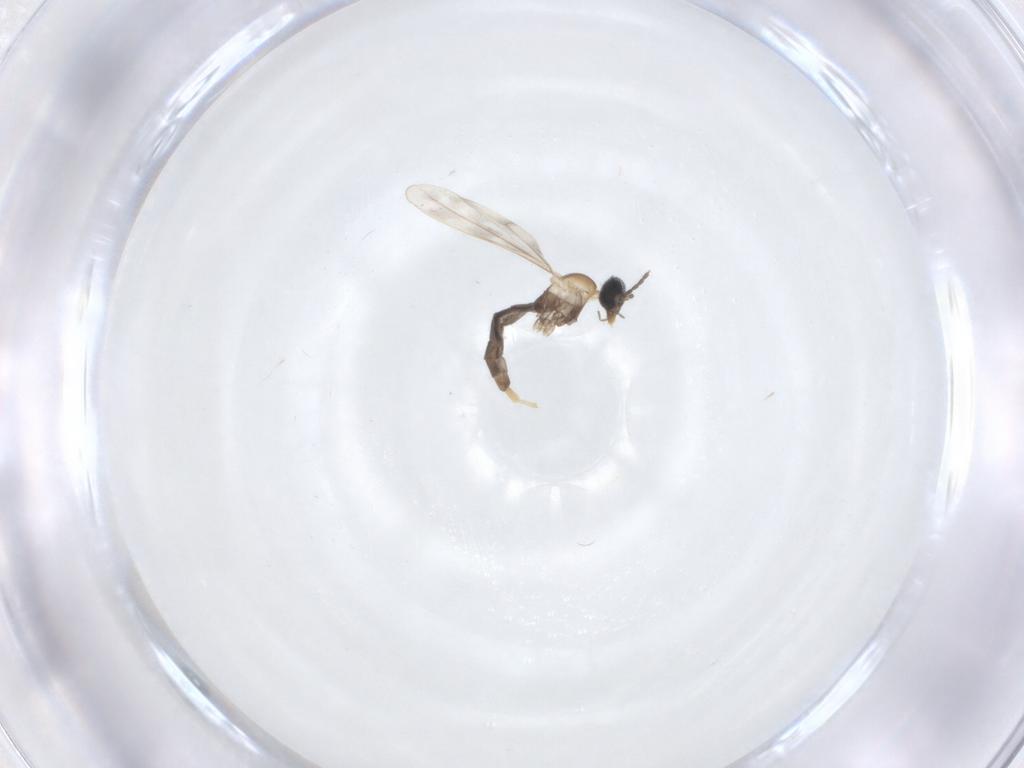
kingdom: Animalia
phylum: Arthropoda
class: Insecta
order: Diptera
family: Cecidomyiidae
